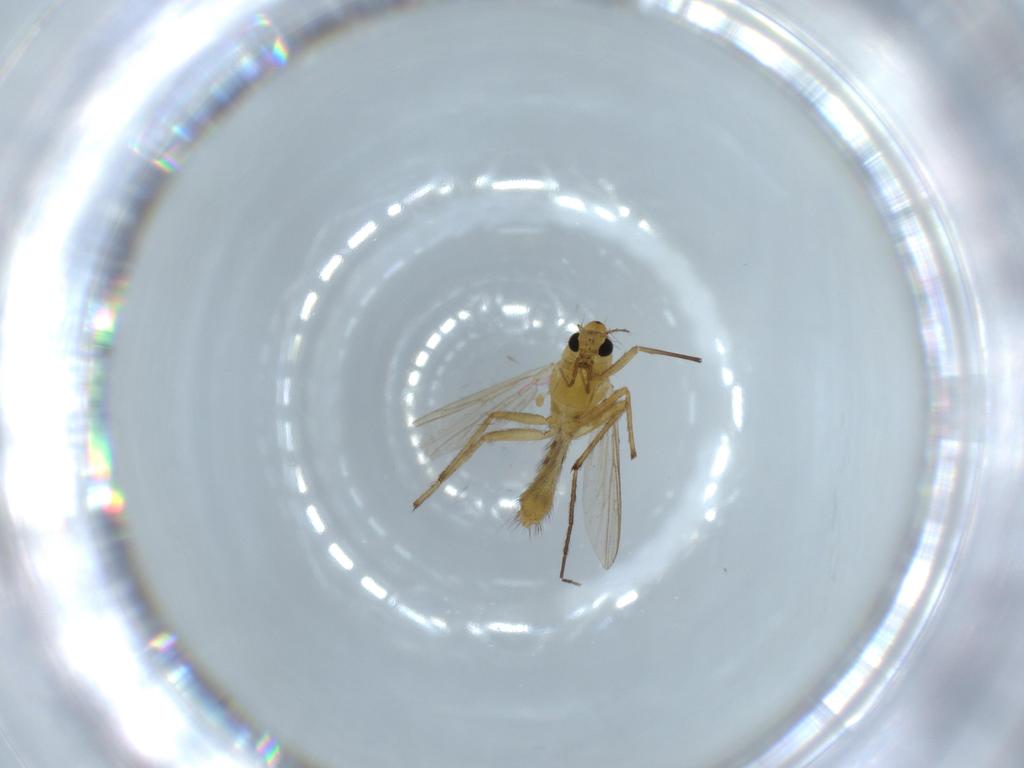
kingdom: Animalia
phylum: Arthropoda
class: Insecta
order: Diptera
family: Chironomidae
